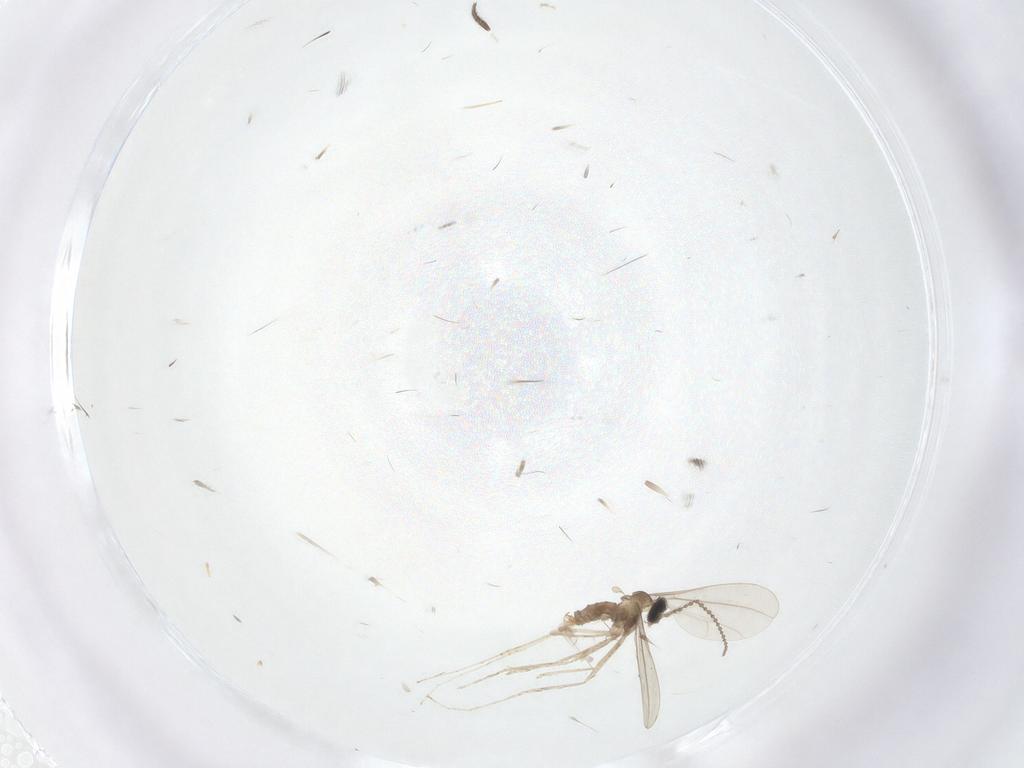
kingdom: Animalia
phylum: Arthropoda
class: Insecta
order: Diptera
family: Cecidomyiidae
